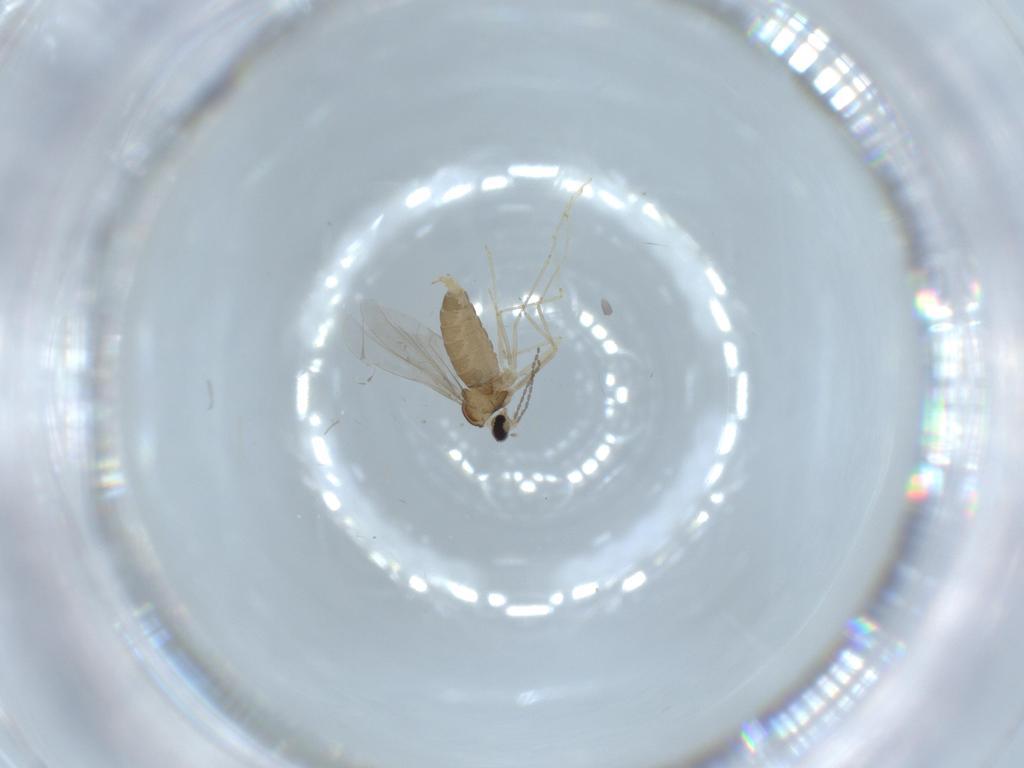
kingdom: Animalia
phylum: Arthropoda
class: Insecta
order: Diptera
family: Cecidomyiidae
